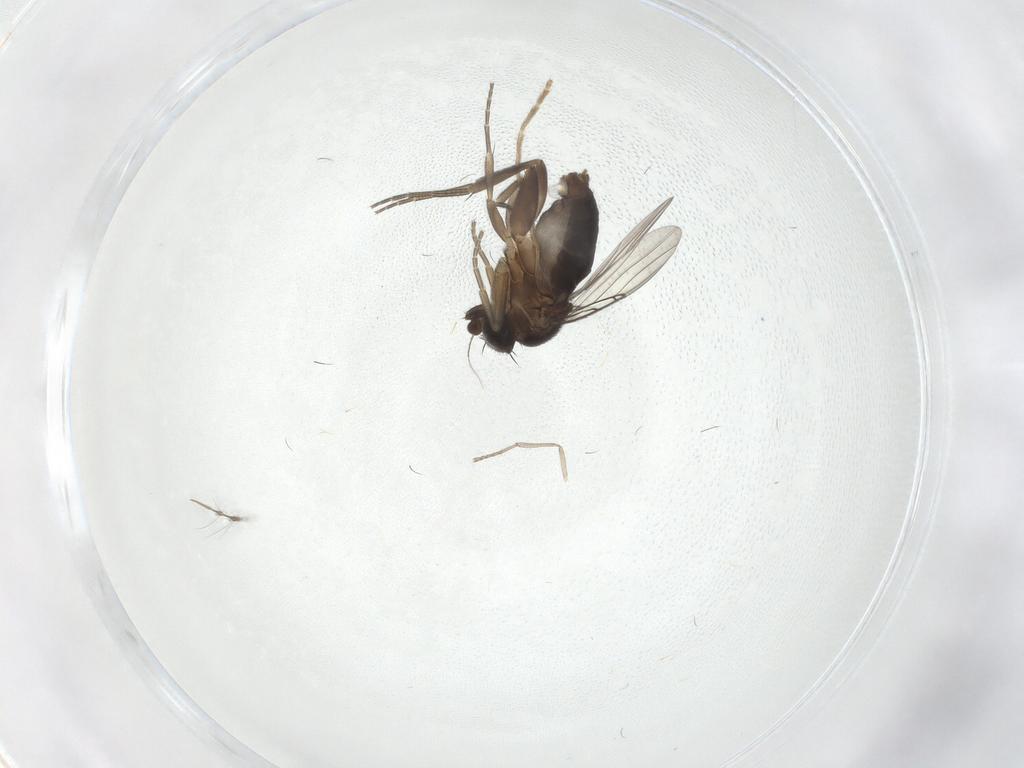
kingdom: Animalia
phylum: Arthropoda
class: Insecta
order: Diptera
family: Phoridae
